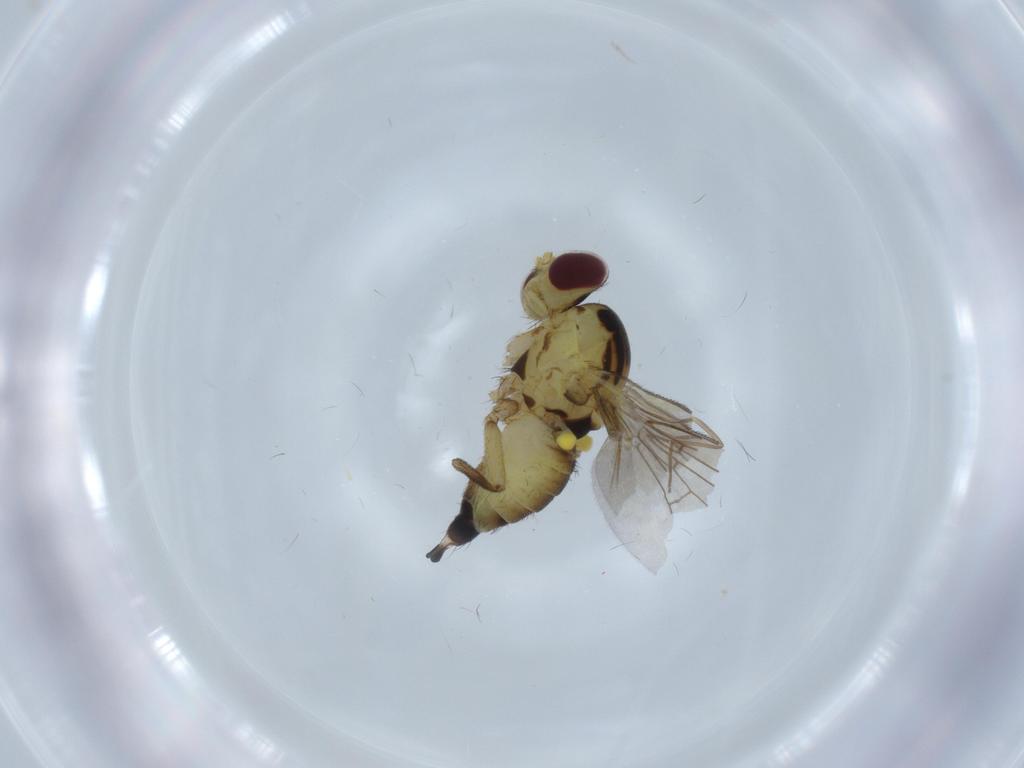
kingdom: Animalia
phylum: Arthropoda
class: Insecta
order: Diptera
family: Agromyzidae
